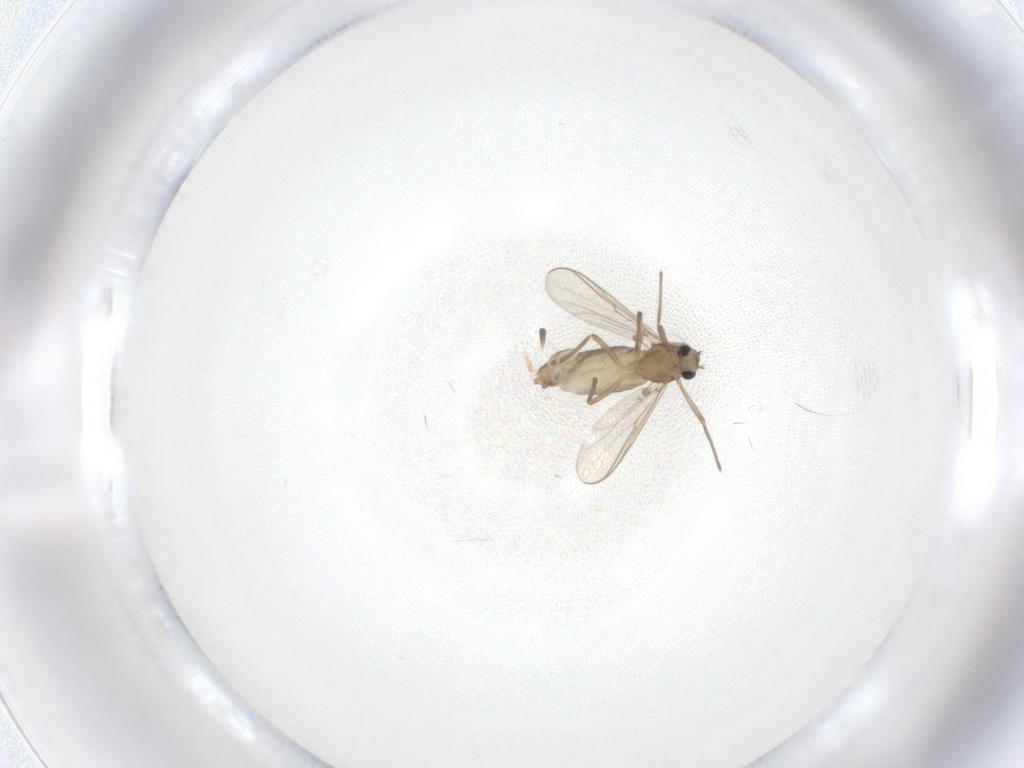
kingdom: Animalia
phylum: Arthropoda
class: Insecta
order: Diptera
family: Chironomidae
